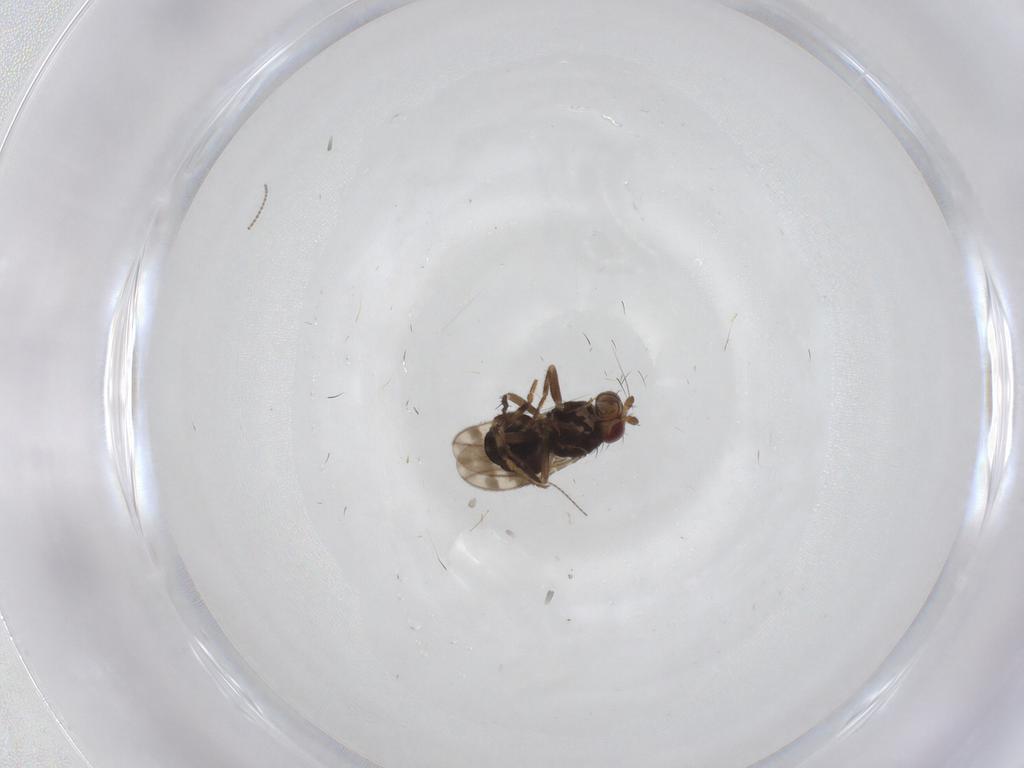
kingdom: Animalia
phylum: Arthropoda
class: Insecta
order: Diptera
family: Sphaeroceridae
